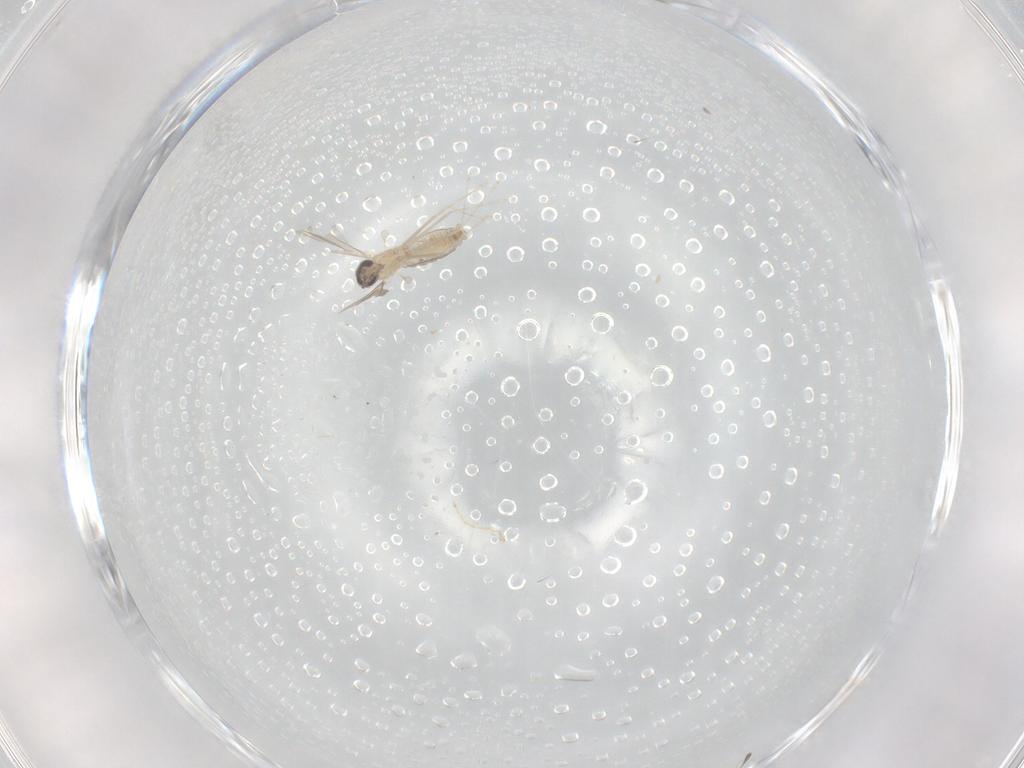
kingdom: Animalia
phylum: Arthropoda
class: Insecta
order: Diptera
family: Cecidomyiidae
